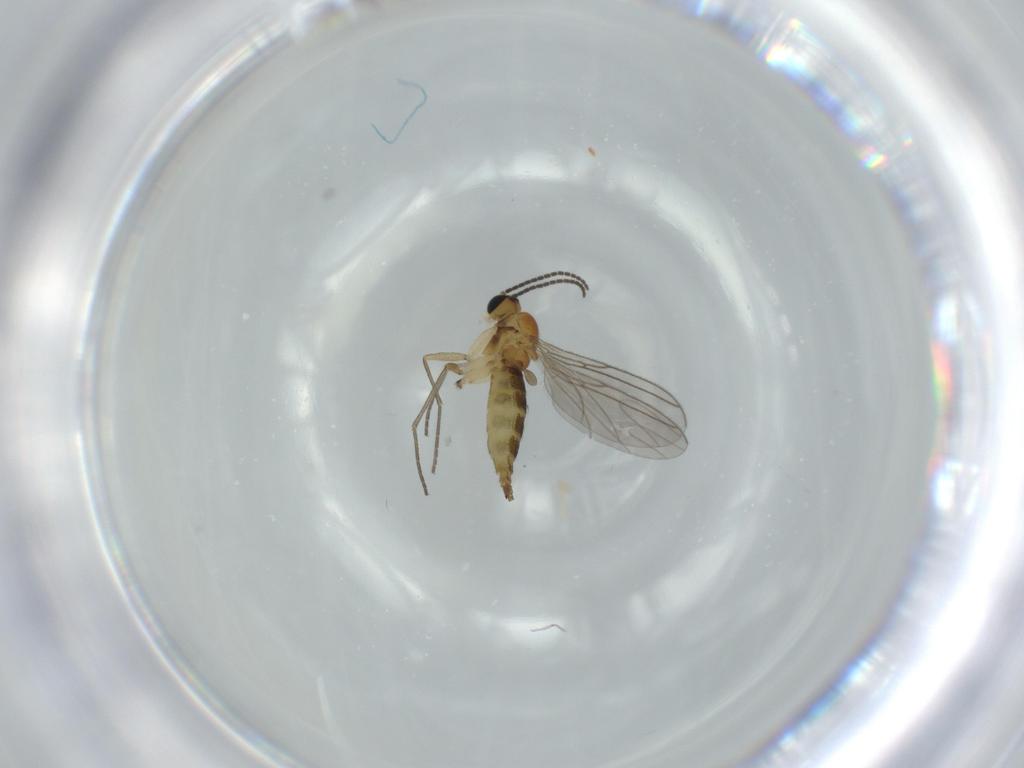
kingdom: Animalia
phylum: Arthropoda
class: Insecta
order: Diptera
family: Sciaridae
